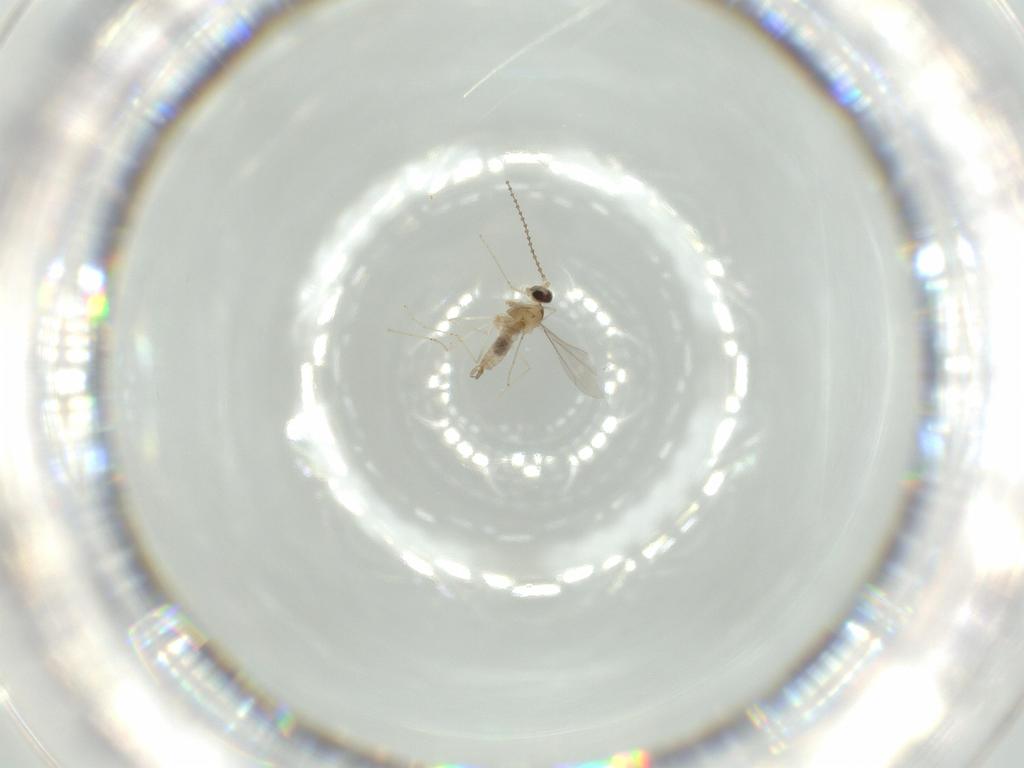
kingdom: Animalia
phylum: Arthropoda
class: Insecta
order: Diptera
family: Cecidomyiidae
